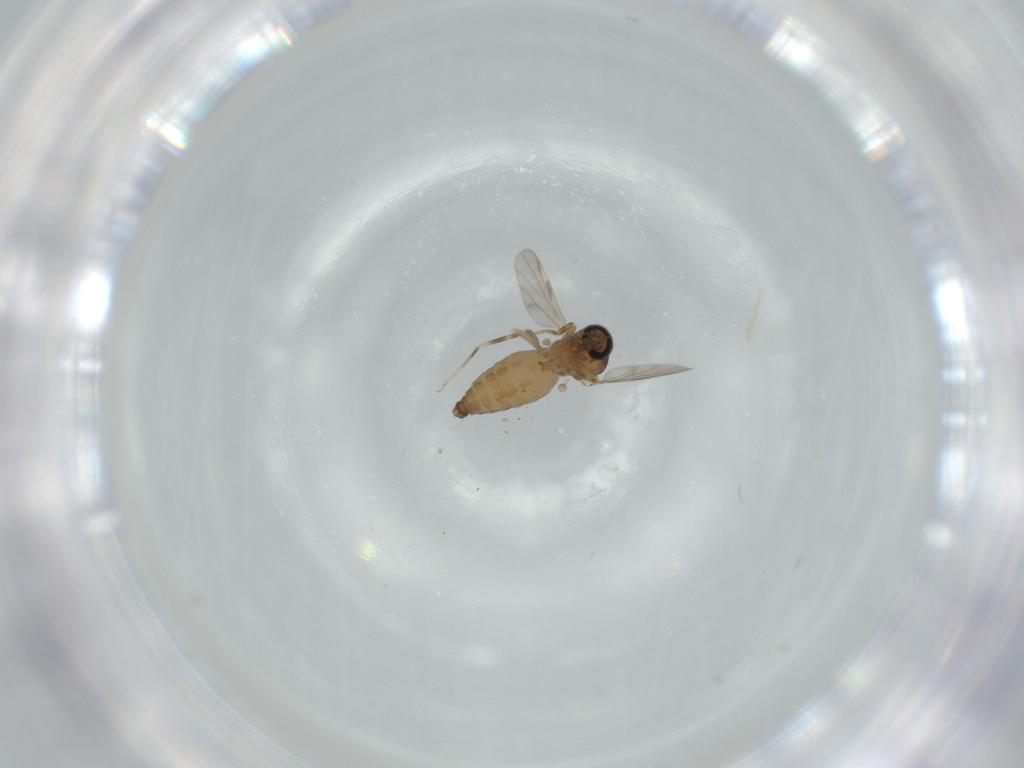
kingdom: Animalia
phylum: Arthropoda
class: Insecta
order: Diptera
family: Ceratopogonidae
